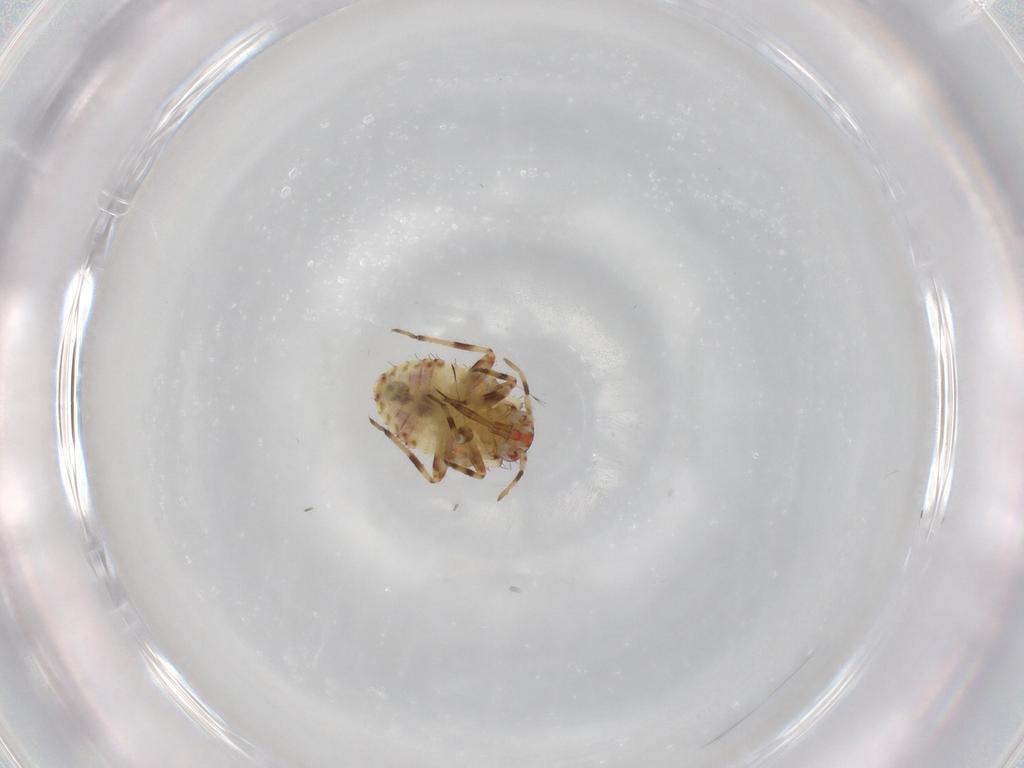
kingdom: Animalia
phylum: Arthropoda
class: Insecta
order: Hemiptera
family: Miridae
